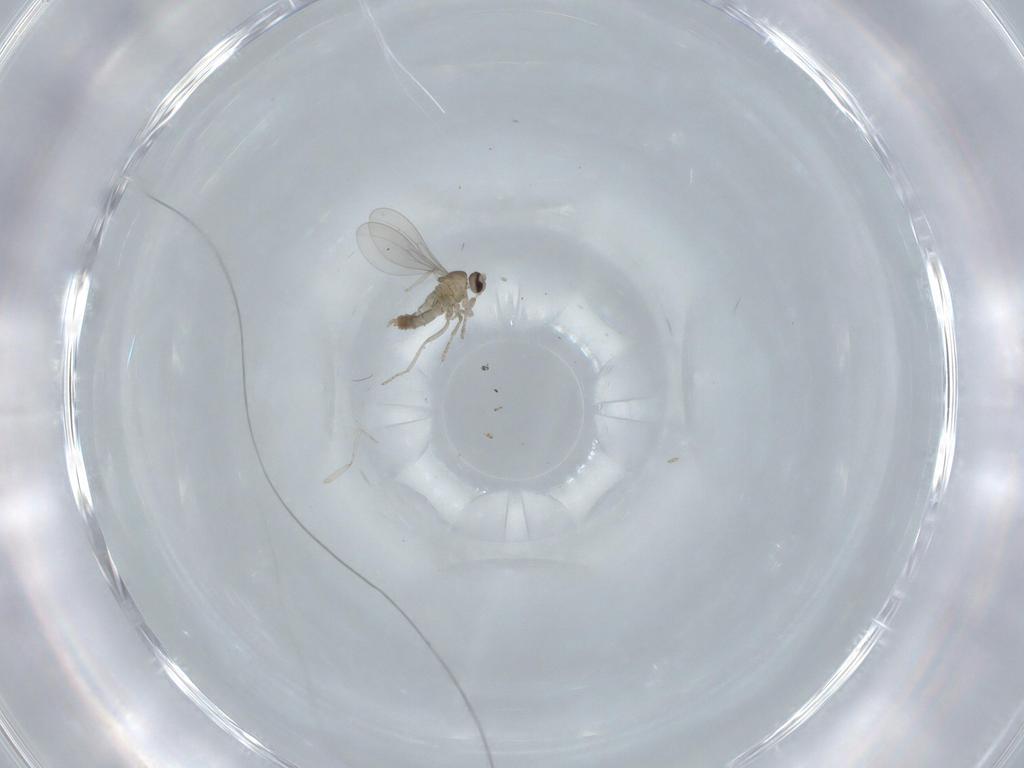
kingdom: Animalia
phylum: Arthropoda
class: Insecta
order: Diptera
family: Cecidomyiidae
